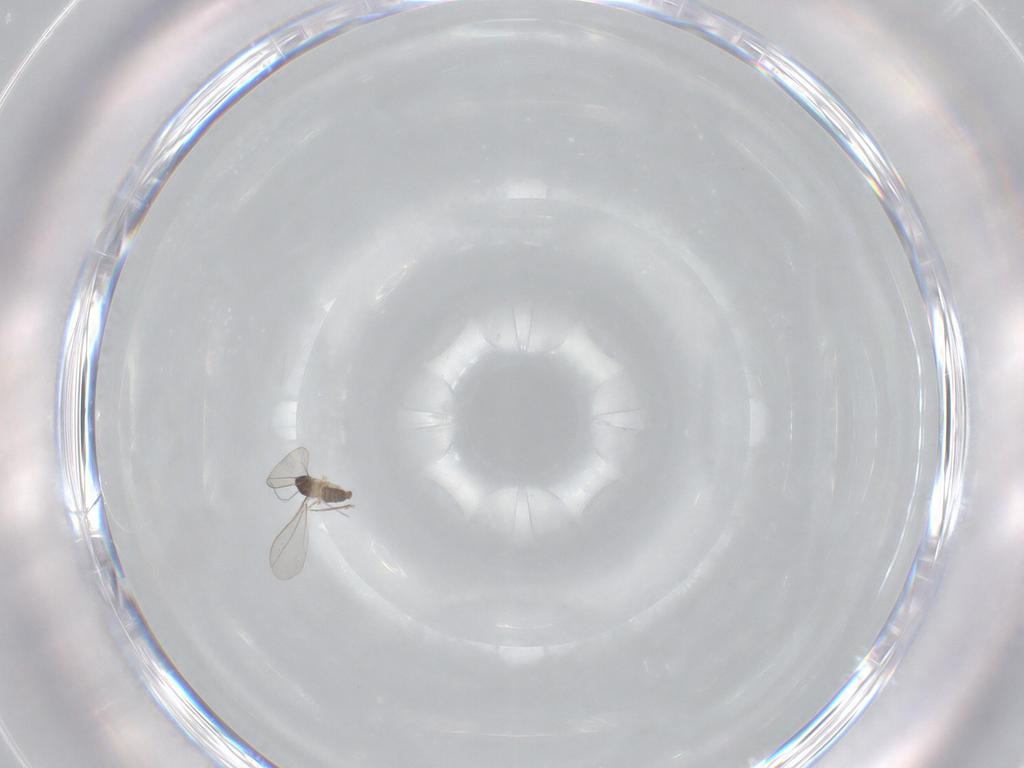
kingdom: Animalia
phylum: Arthropoda
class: Insecta
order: Diptera
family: Cecidomyiidae
